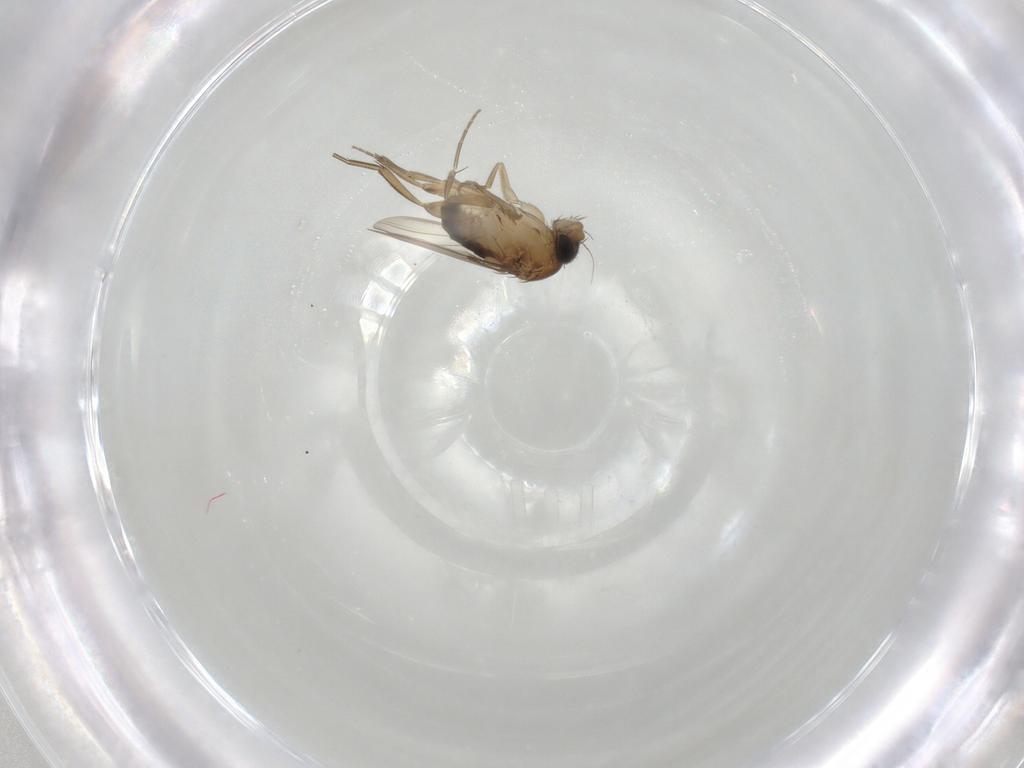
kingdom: Animalia
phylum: Arthropoda
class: Insecta
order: Diptera
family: Phoridae
